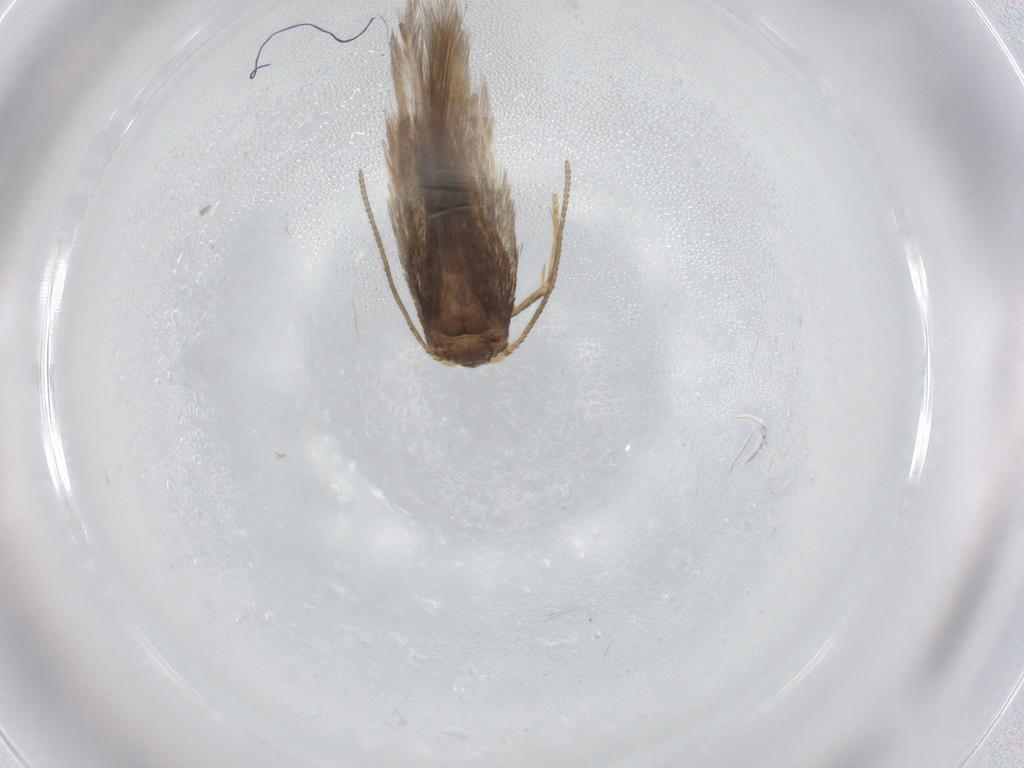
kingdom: Animalia
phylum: Arthropoda
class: Insecta
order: Lepidoptera
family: Nepticulidae
